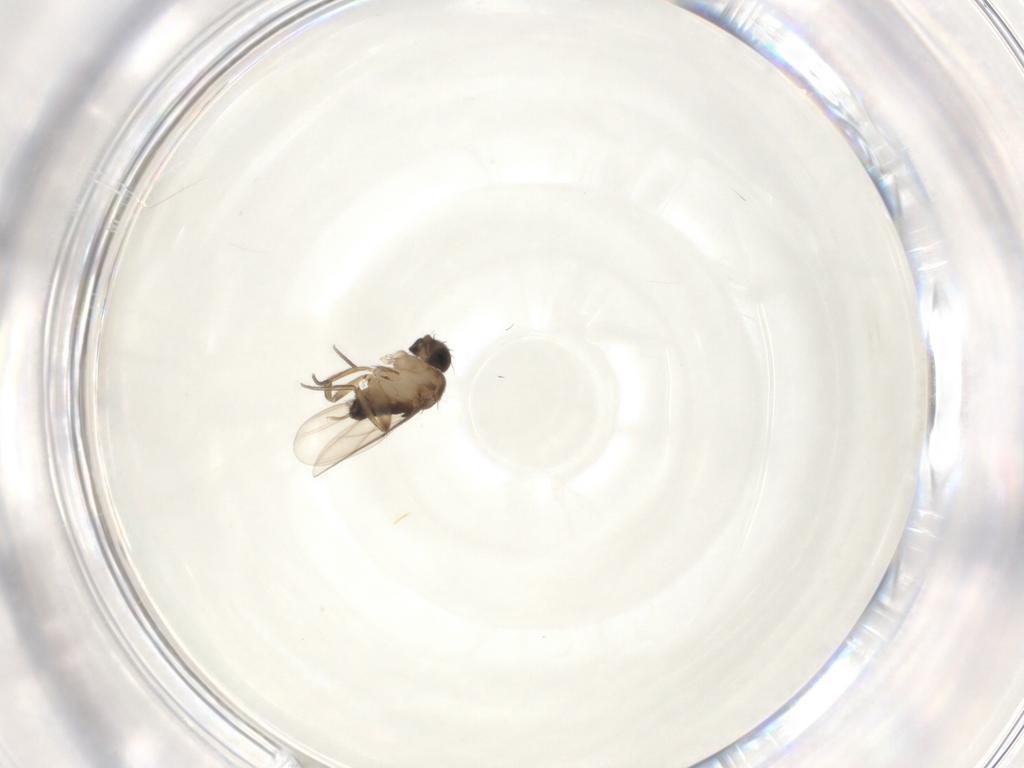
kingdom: Animalia
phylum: Arthropoda
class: Insecta
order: Diptera
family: Phoridae
